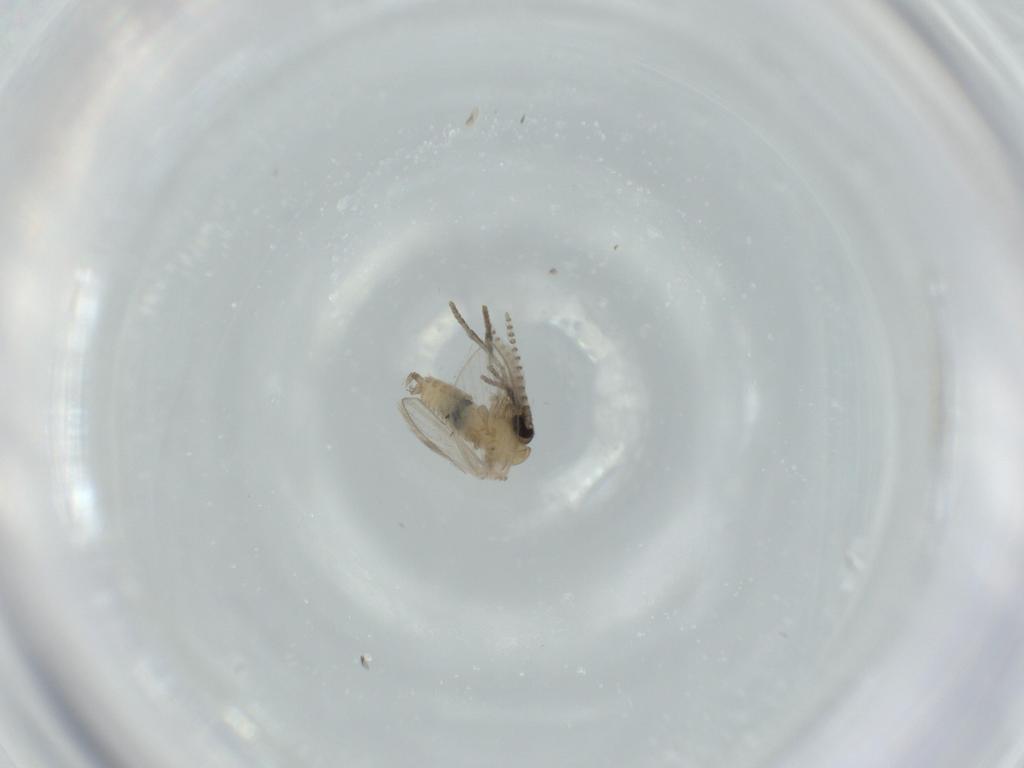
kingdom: Animalia
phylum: Arthropoda
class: Insecta
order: Diptera
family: Psychodidae
